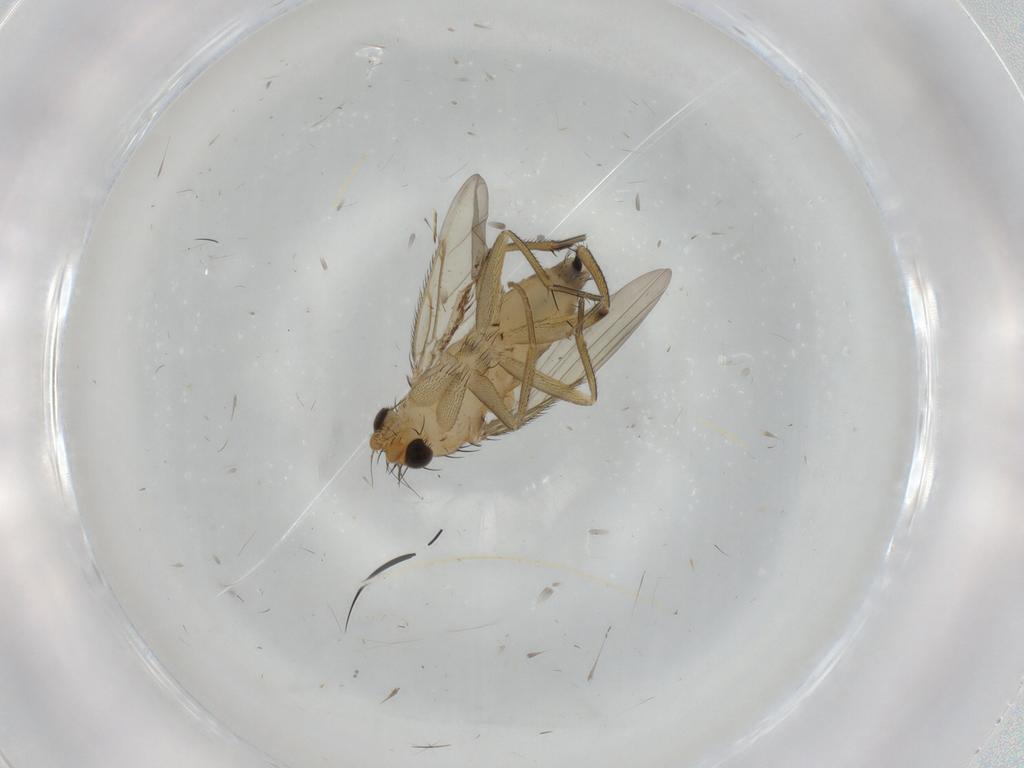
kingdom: Animalia
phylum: Arthropoda
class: Insecta
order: Diptera
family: Phoridae
